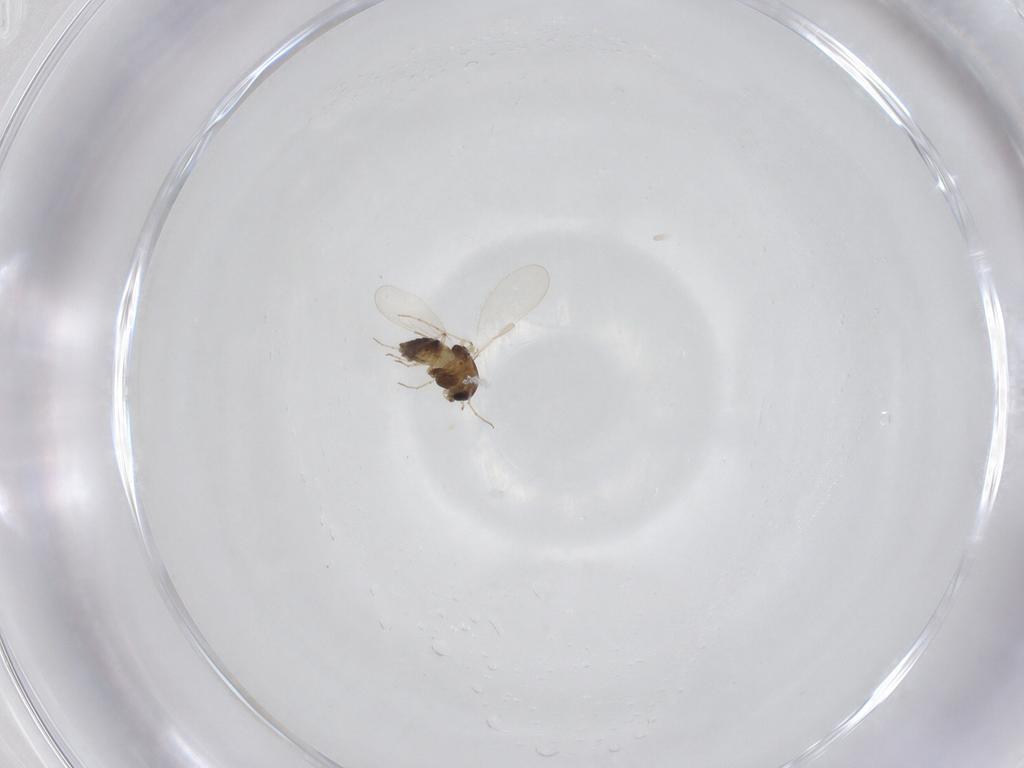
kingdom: Animalia
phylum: Arthropoda
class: Insecta
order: Diptera
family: Chironomidae
